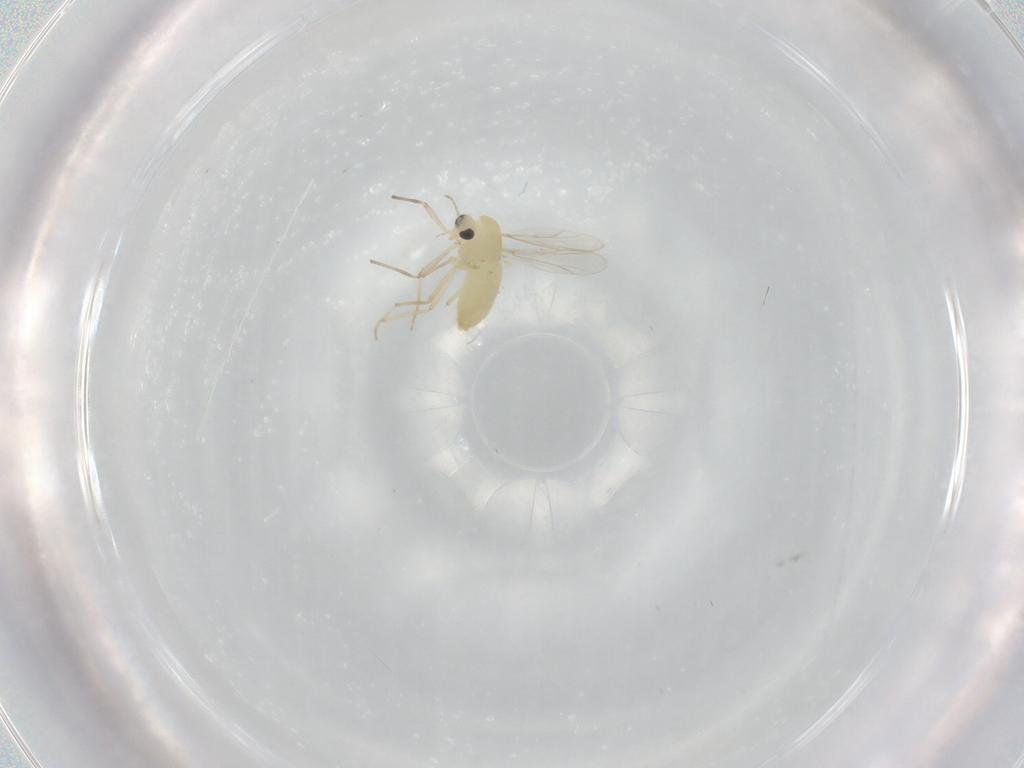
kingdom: Animalia
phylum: Arthropoda
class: Insecta
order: Diptera
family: Chironomidae
